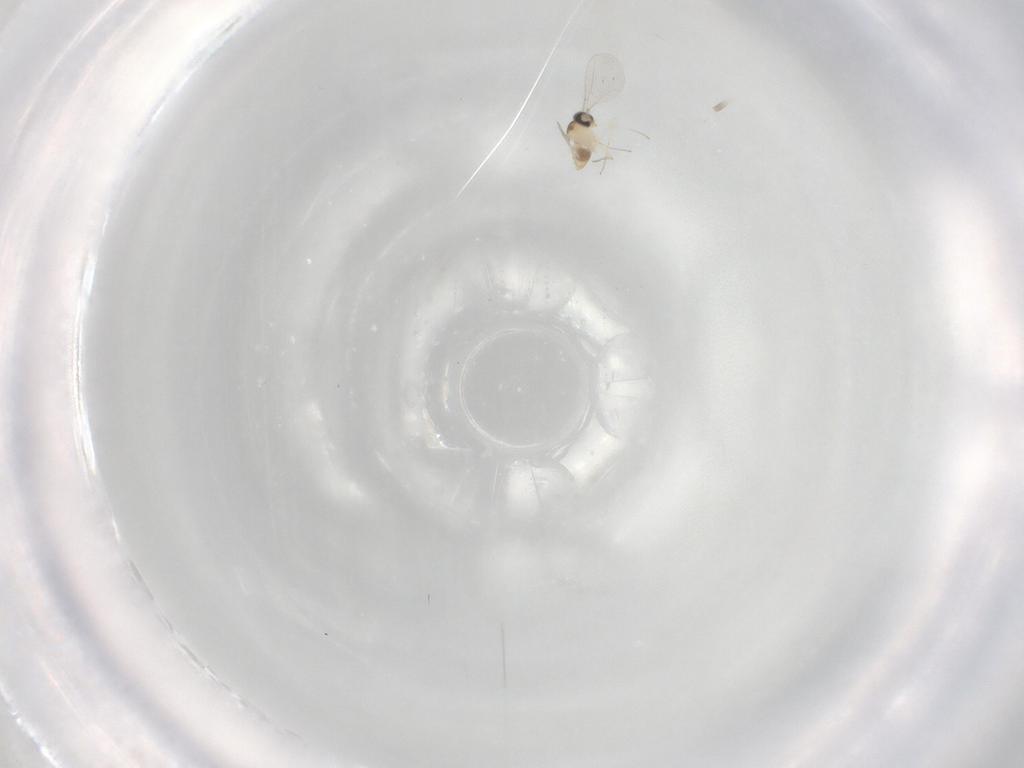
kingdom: Animalia
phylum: Arthropoda
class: Insecta
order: Diptera
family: Cecidomyiidae
